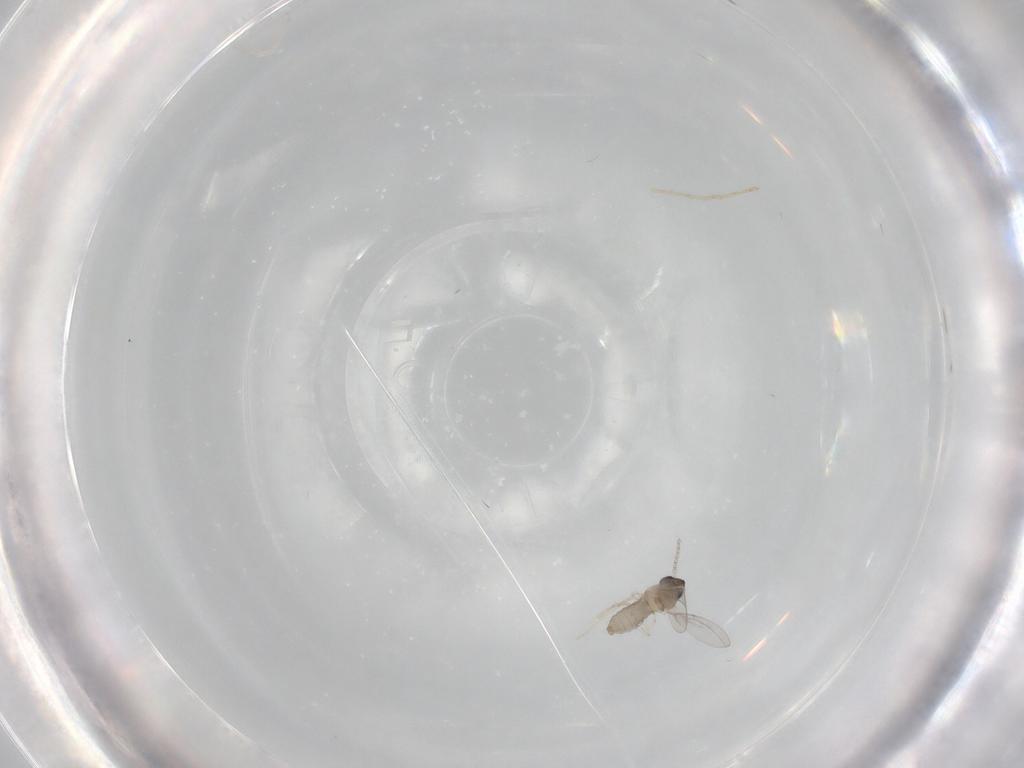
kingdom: Animalia
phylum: Arthropoda
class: Insecta
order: Diptera
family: Cecidomyiidae
